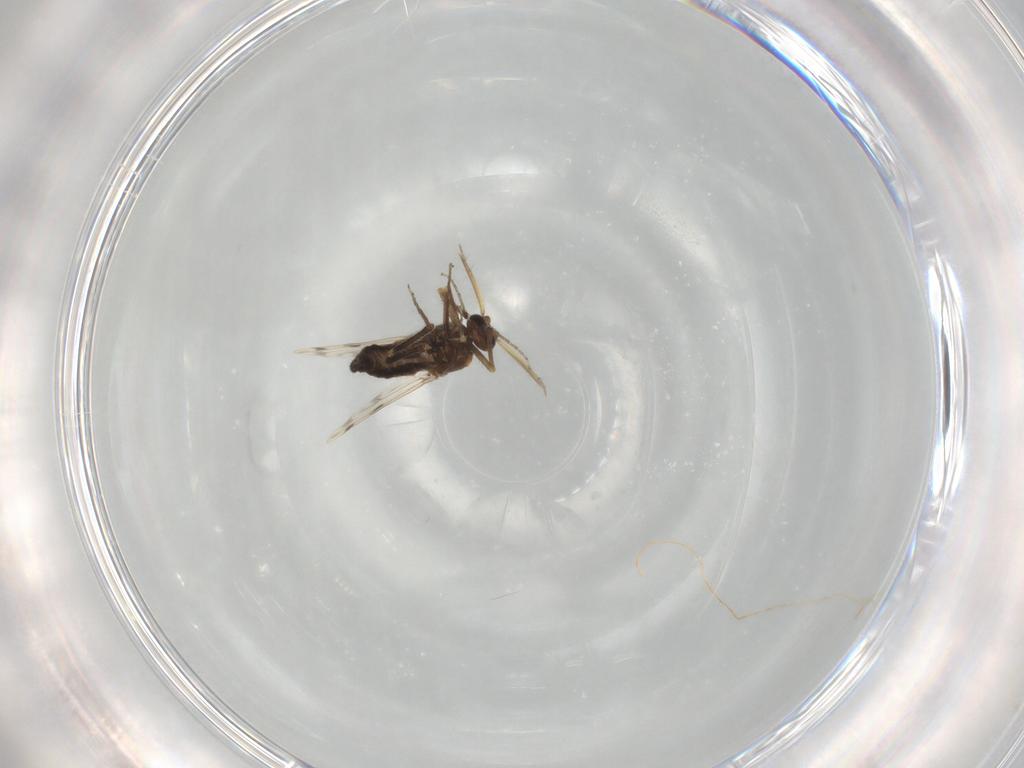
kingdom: Animalia
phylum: Arthropoda
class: Insecta
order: Diptera
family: Ceratopogonidae
